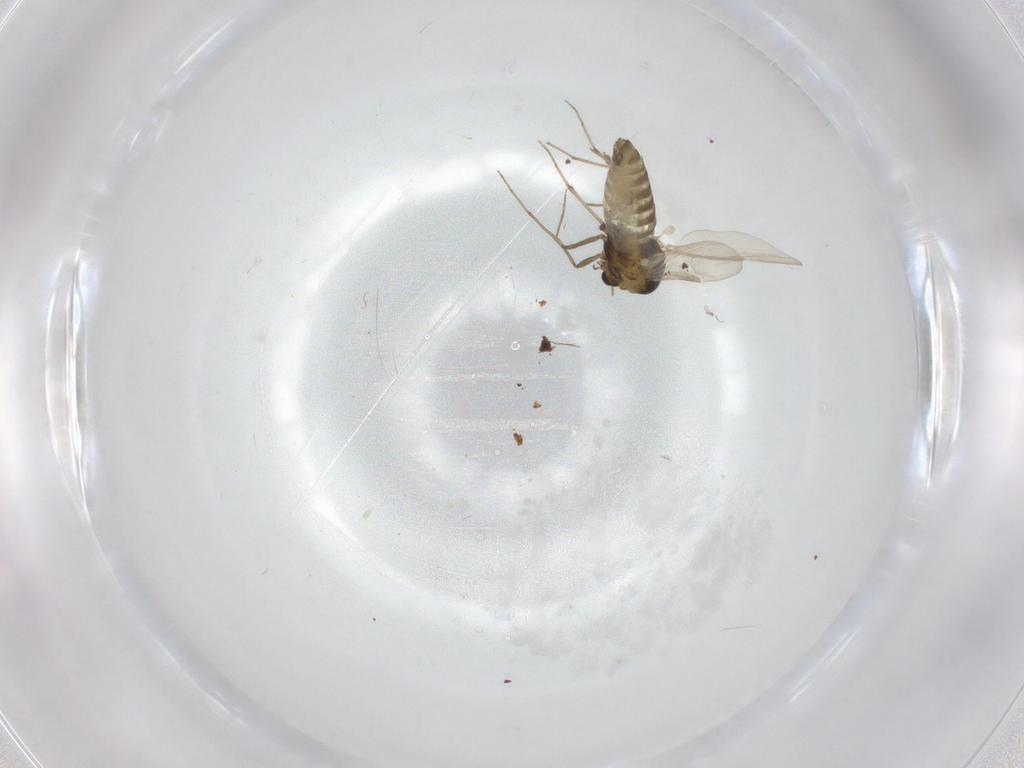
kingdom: Animalia
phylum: Arthropoda
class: Insecta
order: Diptera
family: Chironomidae
